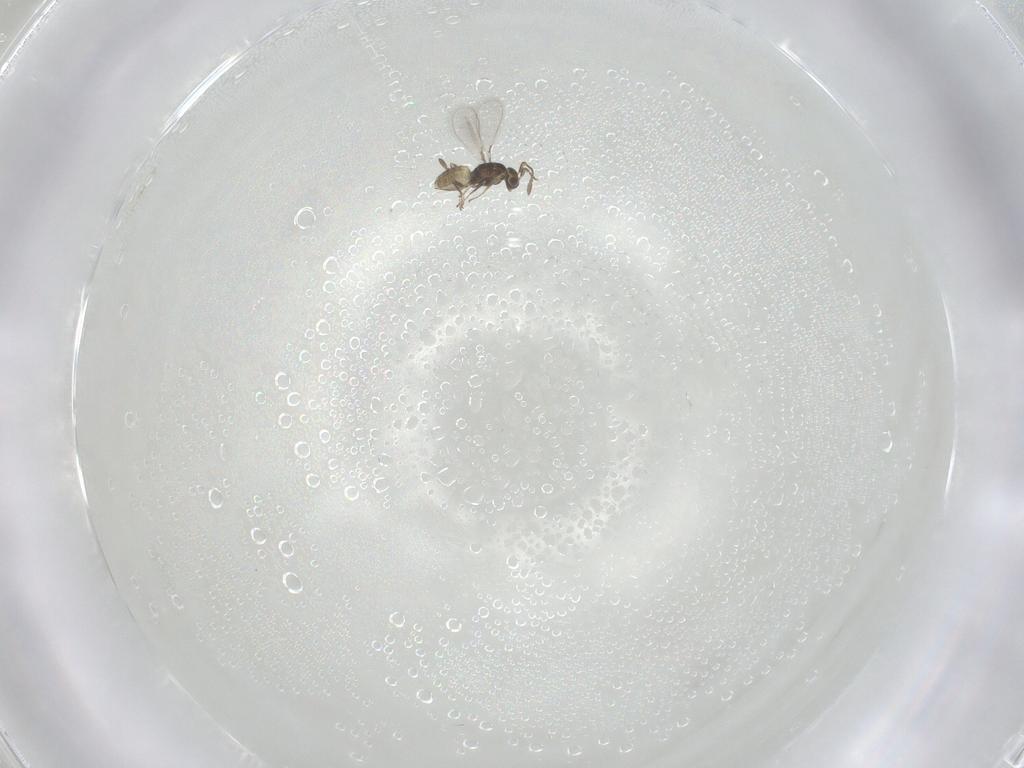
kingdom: Animalia
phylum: Arthropoda
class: Insecta
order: Hymenoptera
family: Mymaridae
